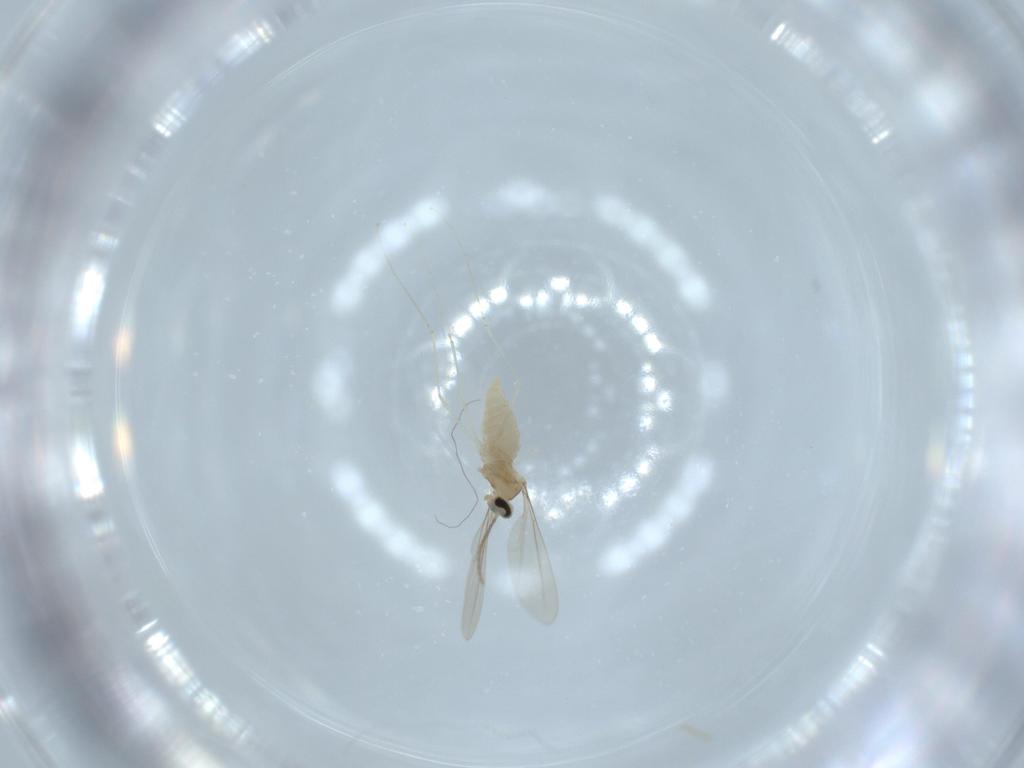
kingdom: Animalia
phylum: Arthropoda
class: Insecta
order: Diptera
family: Cecidomyiidae
